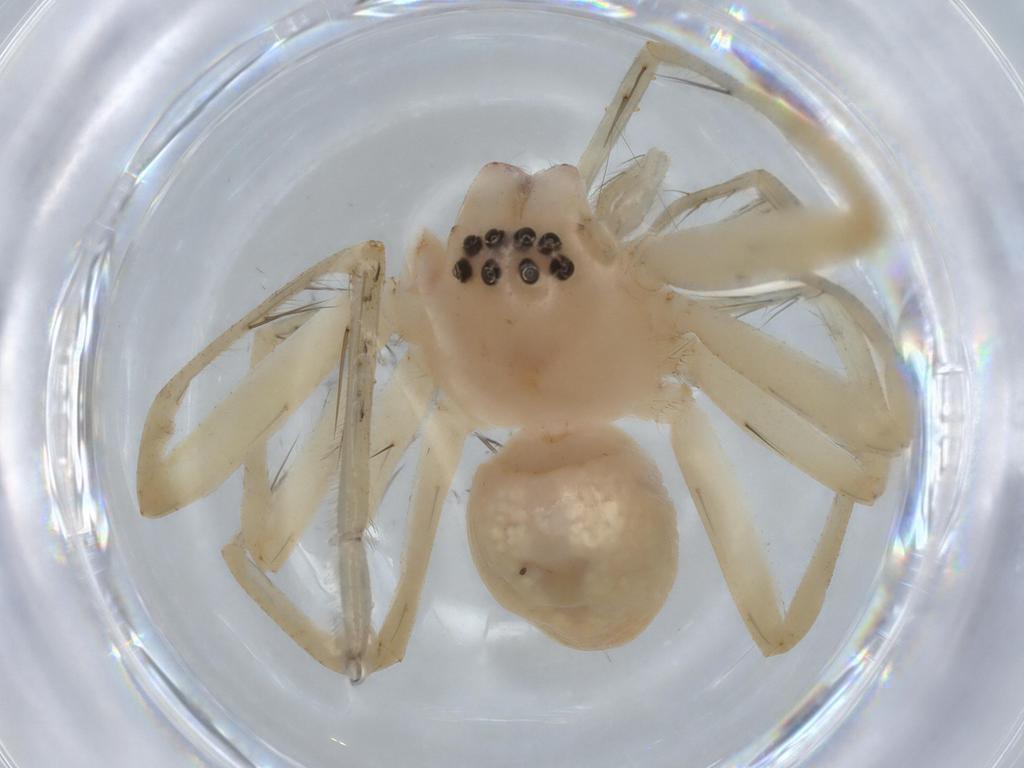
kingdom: Animalia
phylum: Arthropoda
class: Arachnida
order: Araneae
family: Sparassidae
